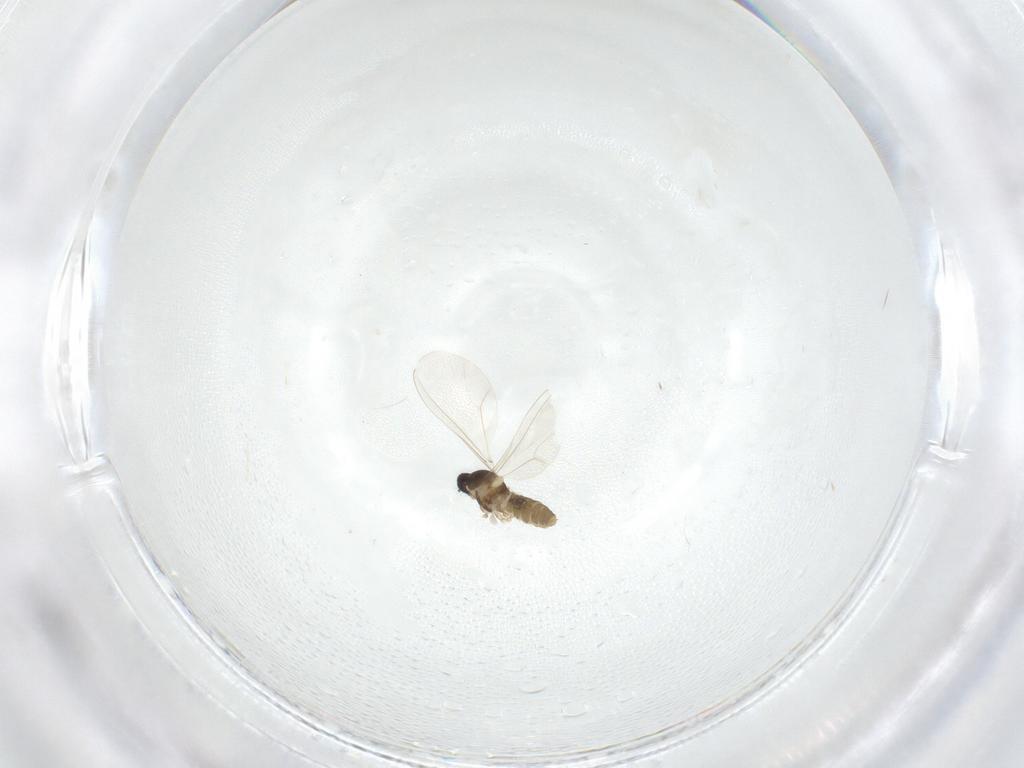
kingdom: Animalia
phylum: Arthropoda
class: Insecta
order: Diptera
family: Cecidomyiidae
